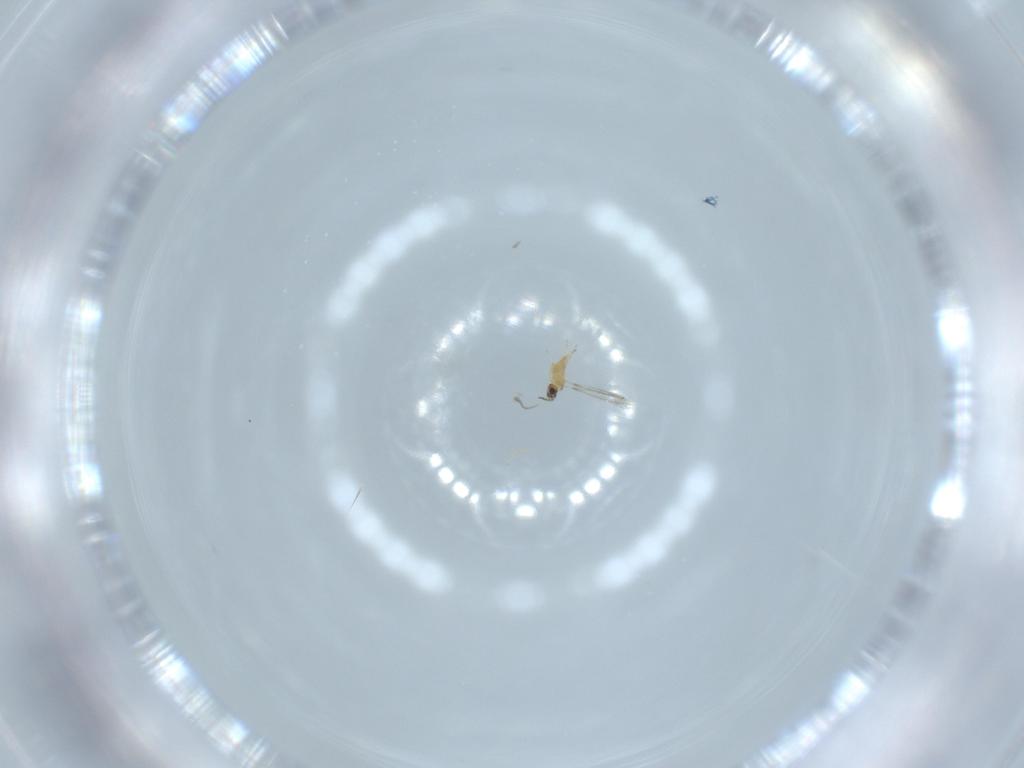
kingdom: Animalia
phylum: Arthropoda
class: Insecta
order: Hymenoptera
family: Mymaridae
